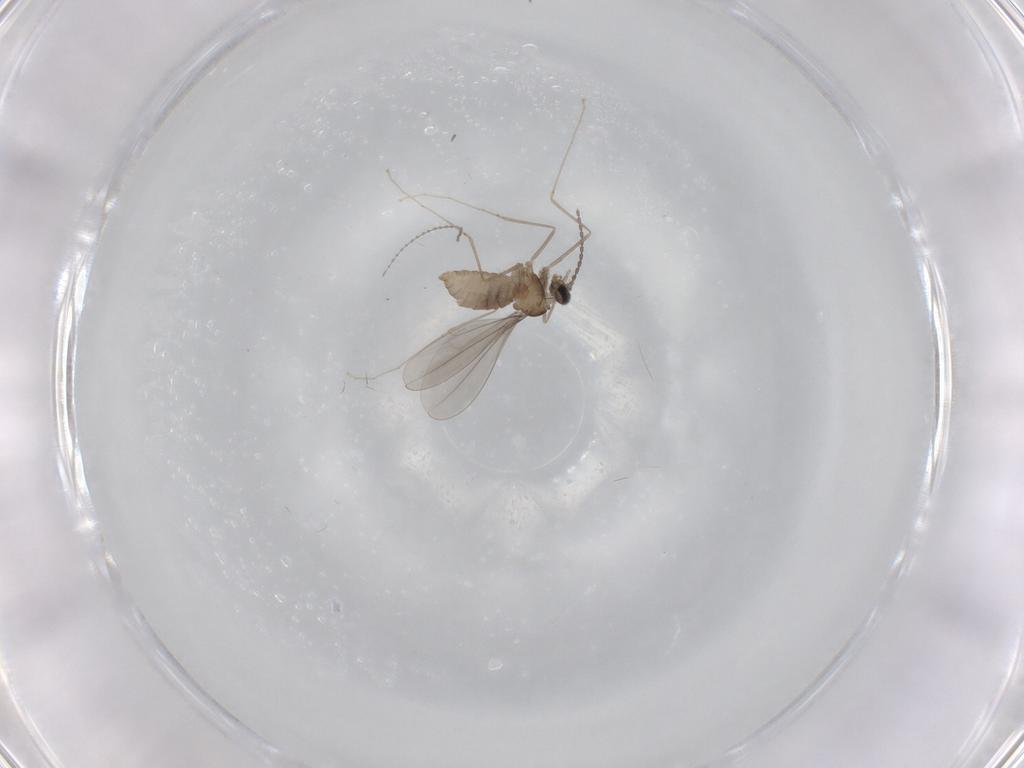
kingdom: Animalia
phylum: Arthropoda
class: Insecta
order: Diptera
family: Cecidomyiidae
